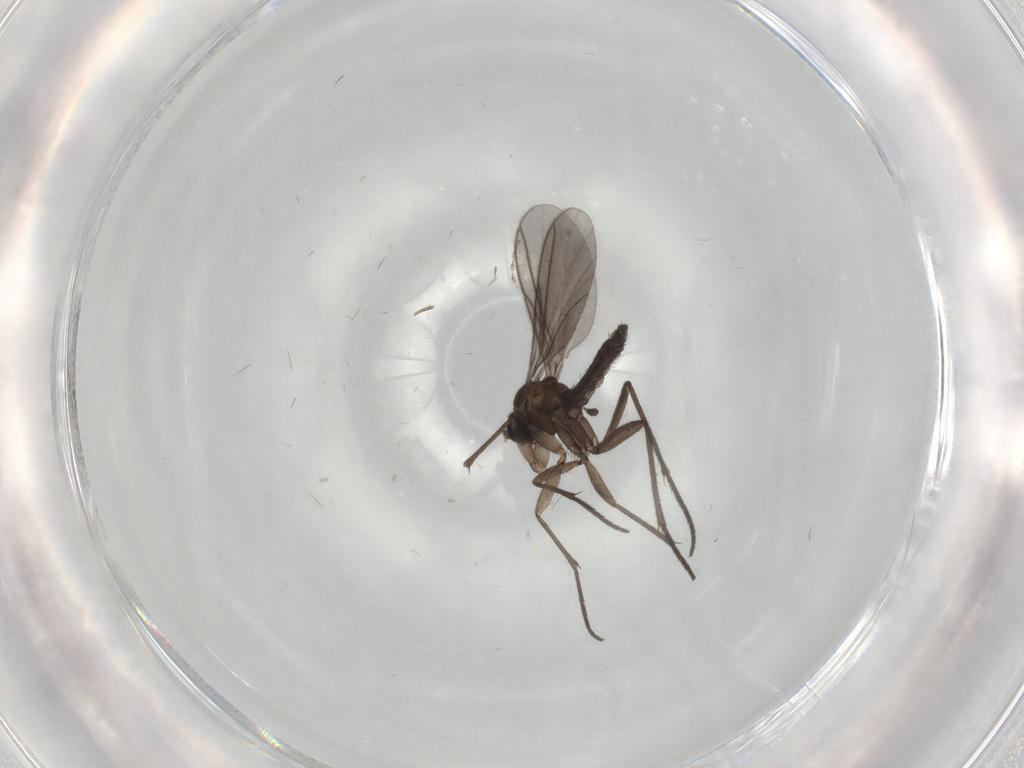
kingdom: Animalia
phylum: Arthropoda
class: Insecta
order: Diptera
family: Sciaridae
